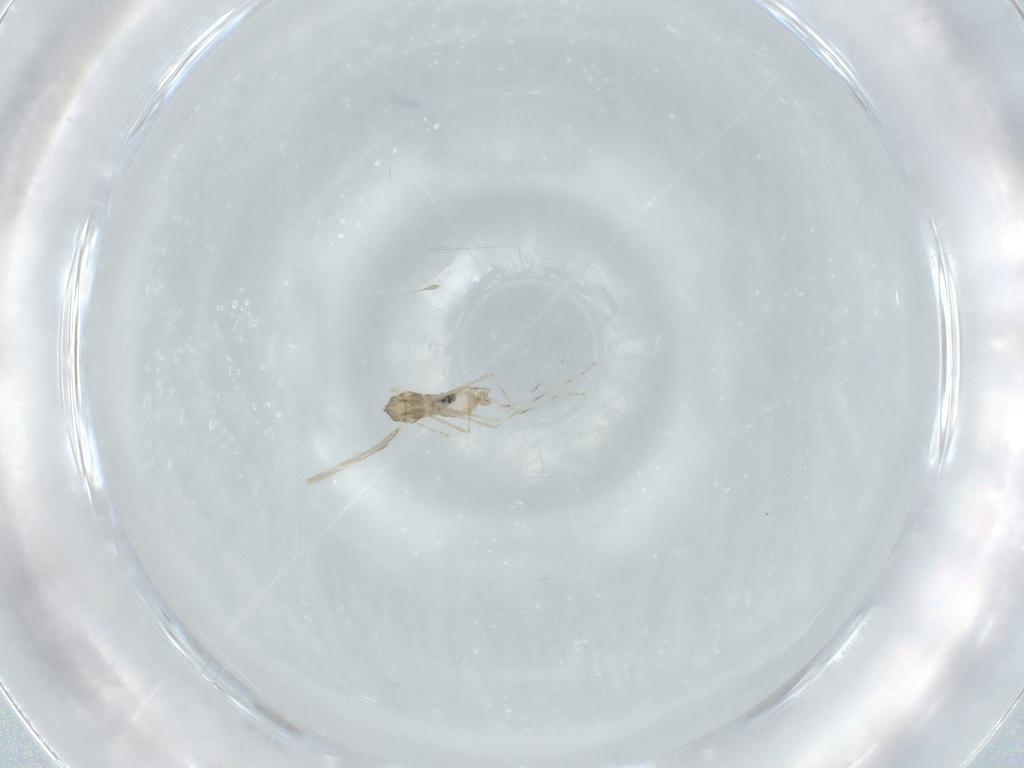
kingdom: Animalia
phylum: Arthropoda
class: Insecta
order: Diptera
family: Cecidomyiidae
